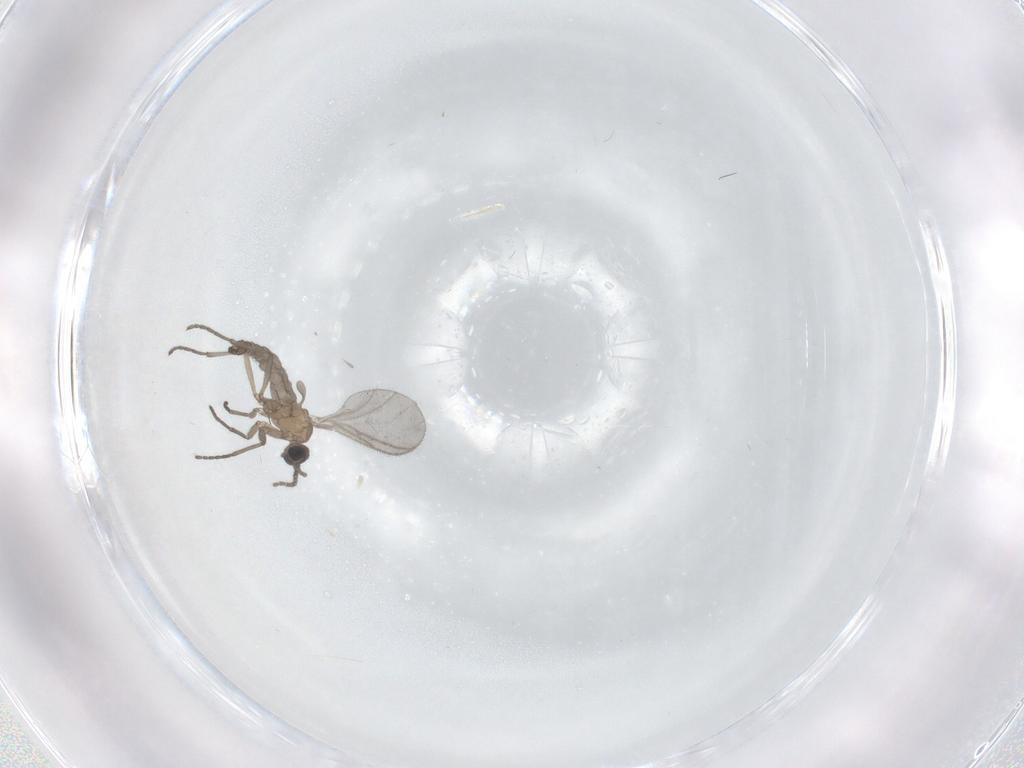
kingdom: Animalia
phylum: Arthropoda
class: Insecta
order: Diptera
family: Sciaridae
